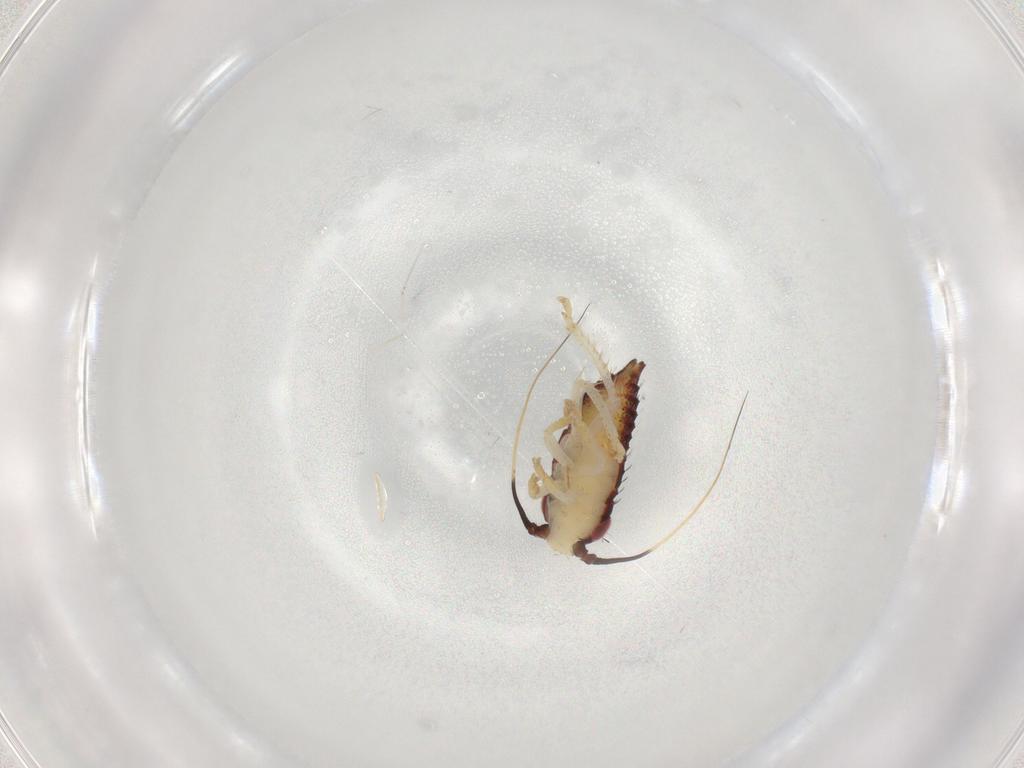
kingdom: Animalia
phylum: Arthropoda
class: Insecta
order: Hemiptera
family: Cicadellidae
